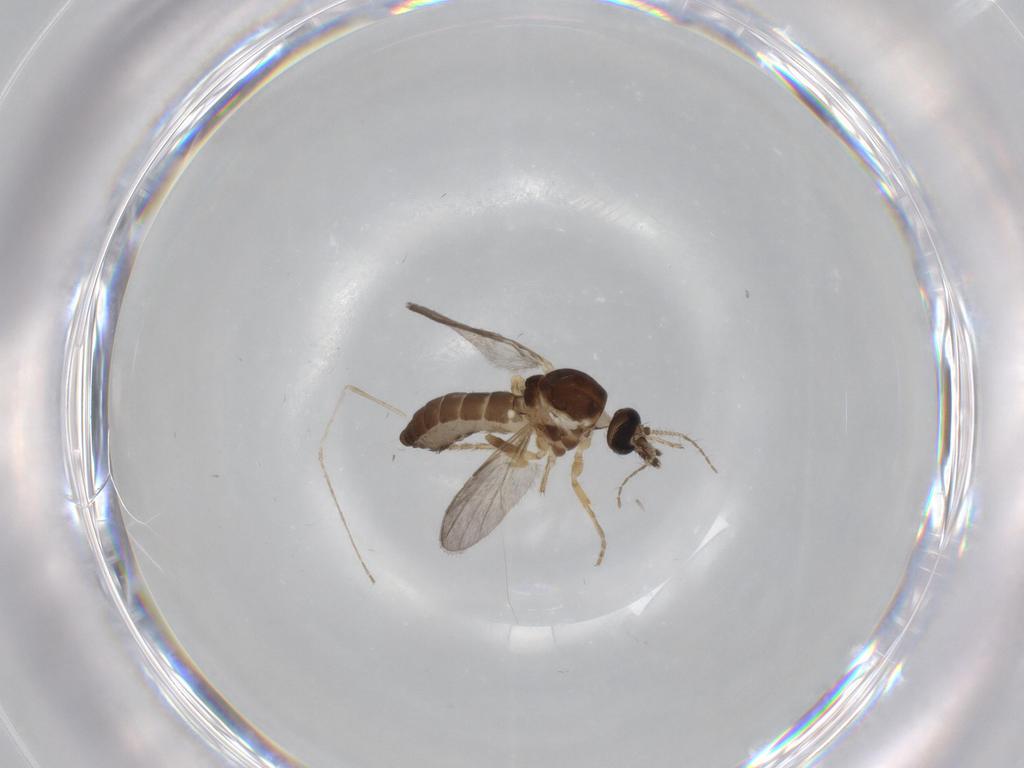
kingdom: Animalia
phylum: Arthropoda
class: Insecta
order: Diptera
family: Ceratopogonidae
